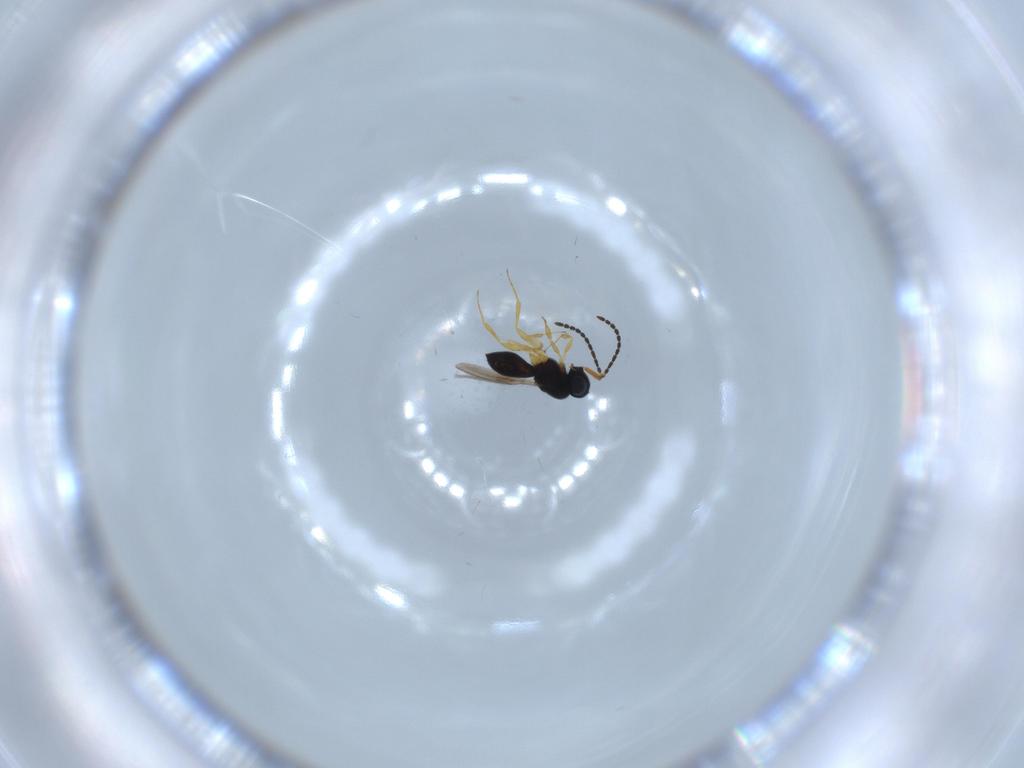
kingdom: Animalia
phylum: Arthropoda
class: Insecta
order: Hymenoptera
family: Scelionidae
